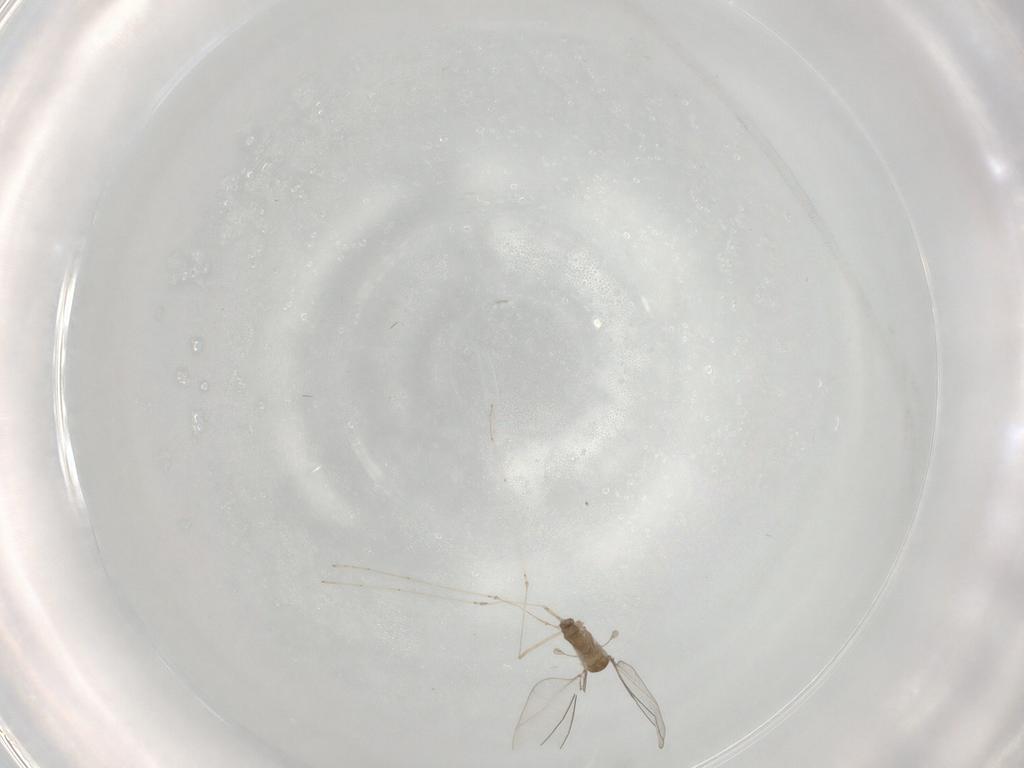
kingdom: Animalia
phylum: Arthropoda
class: Insecta
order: Diptera
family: Cecidomyiidae
